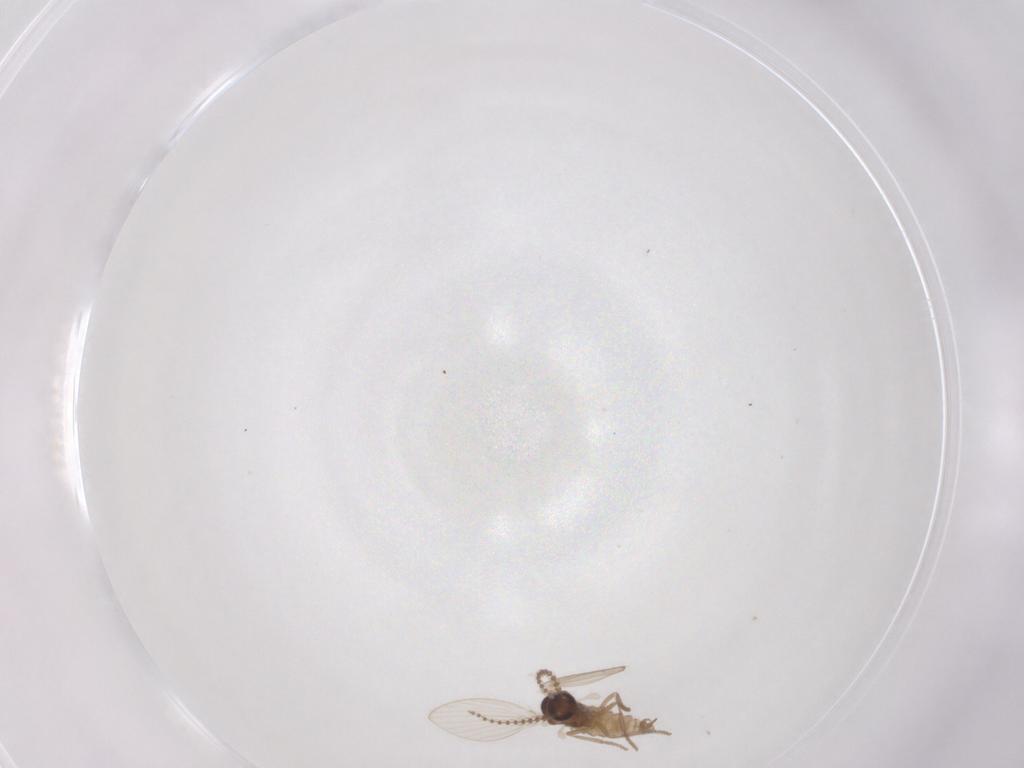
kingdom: Animalia
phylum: Arthropoda
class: Insecta
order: Diptera
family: Psychodidae
